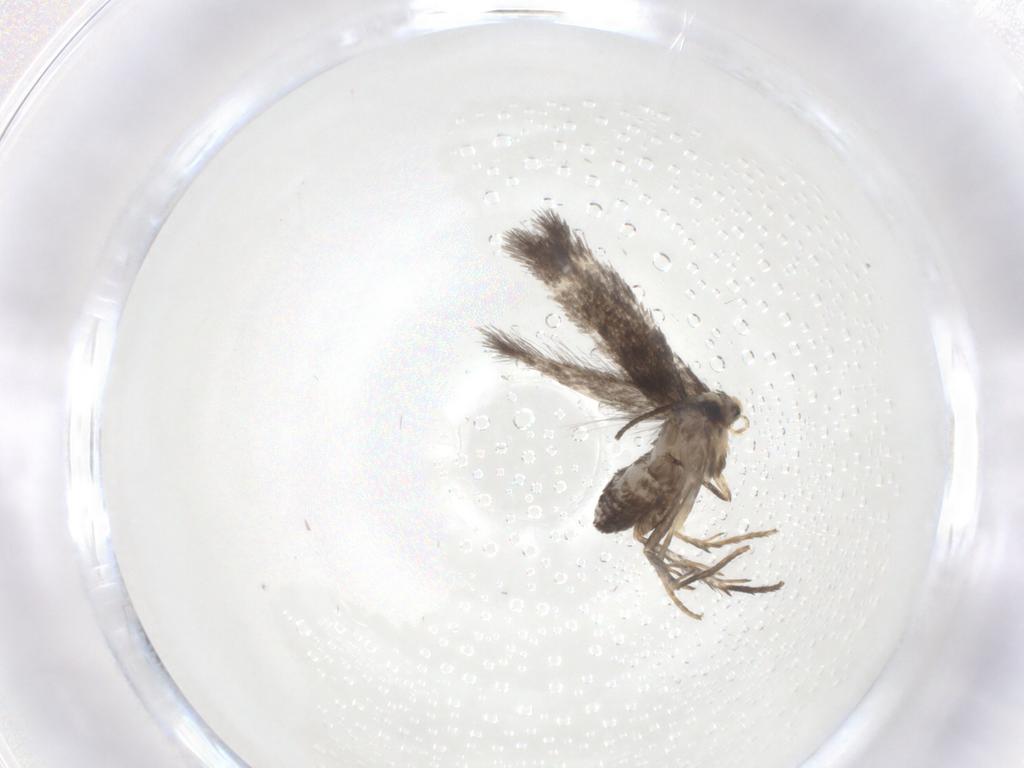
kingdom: Animalia
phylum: Arthropoda
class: Insecta
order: Lepidoptera
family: Nepticulidae
